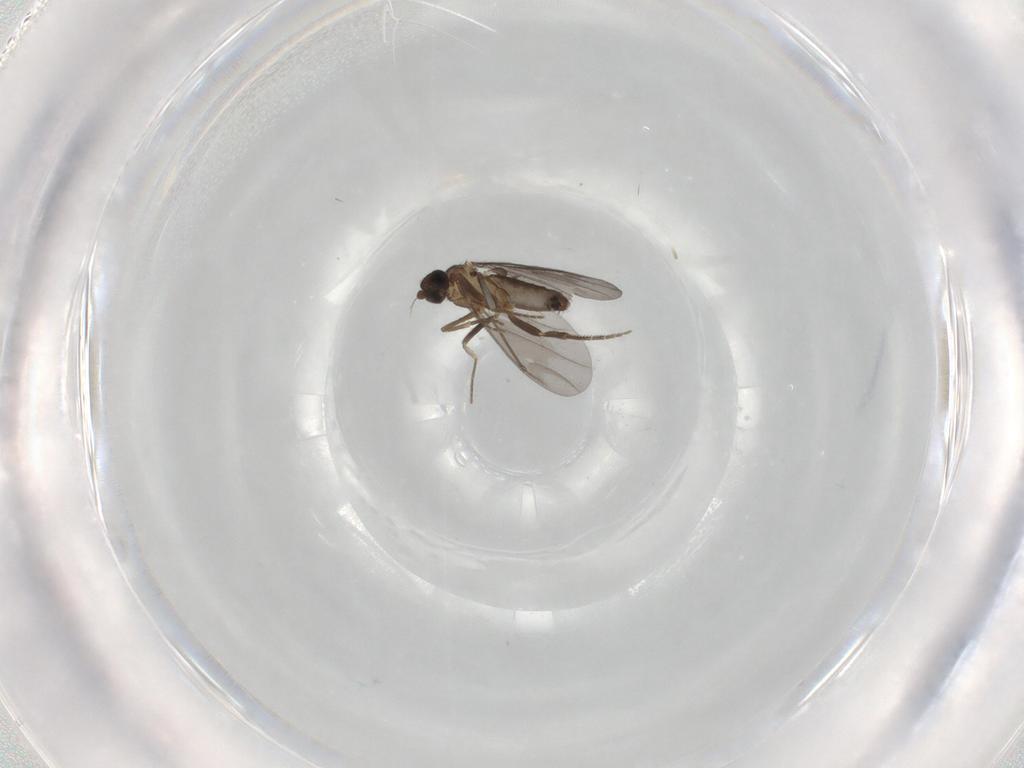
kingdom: Animalia
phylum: Arthropoda
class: Insecta
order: Diptera
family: Phoridae
